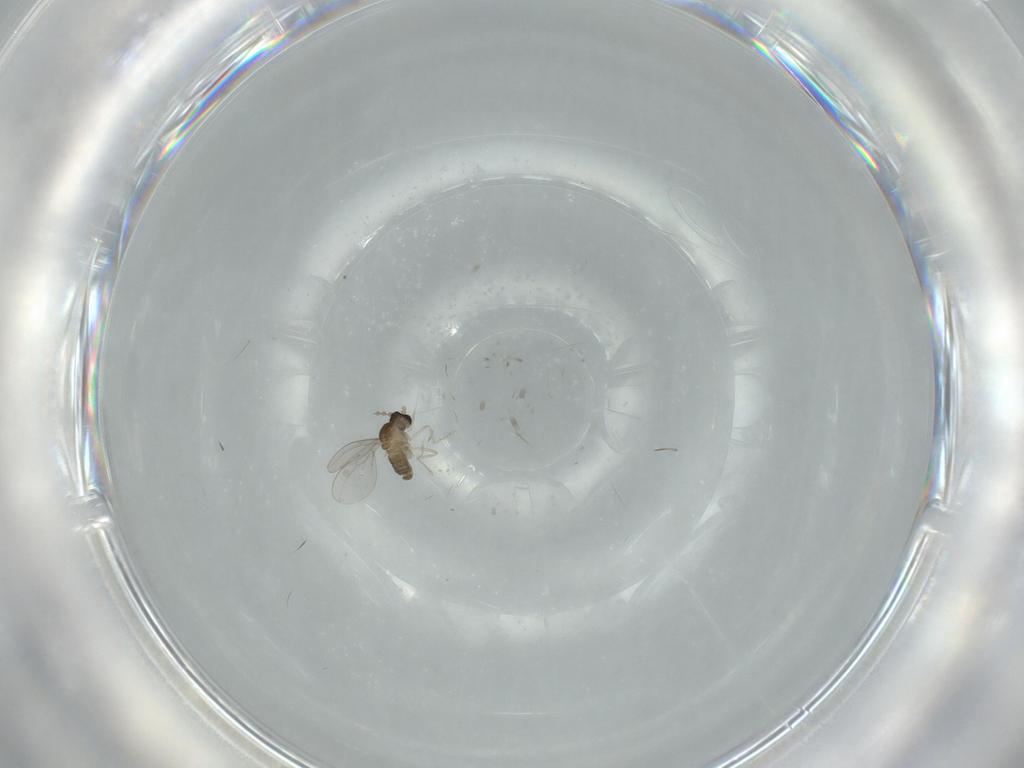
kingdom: Animalia
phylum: Arthropoda
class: Insecta
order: Diptera
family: Cecidomyiidae
